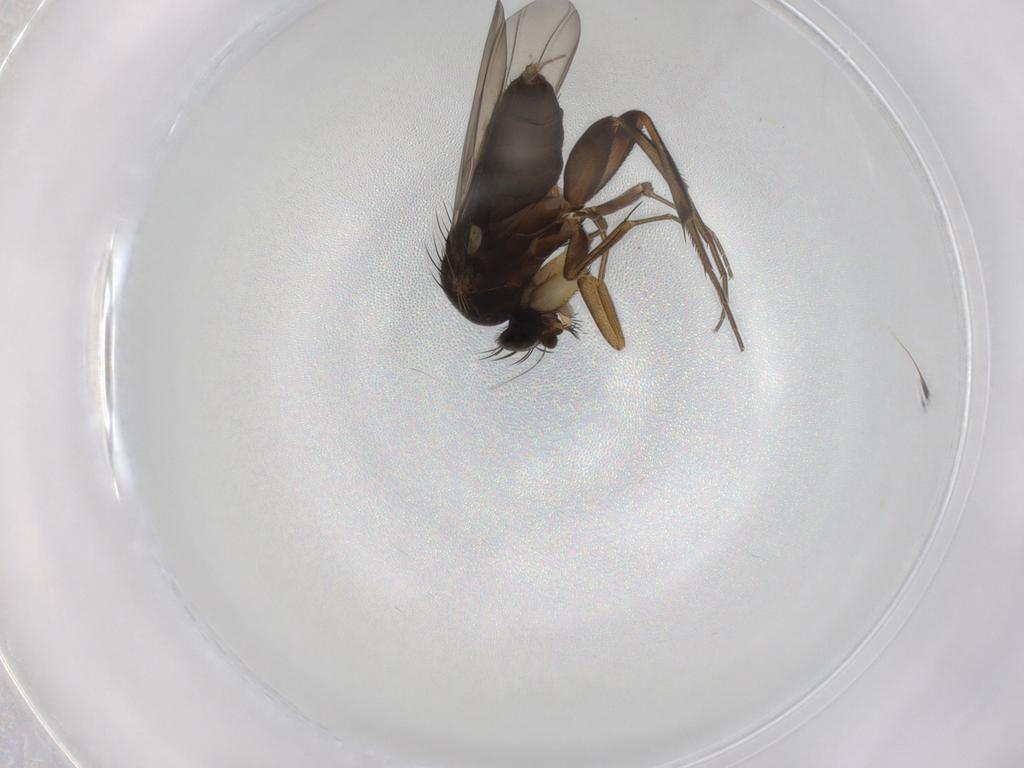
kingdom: Animalia
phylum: Arthropoda
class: Insecta
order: Diptera
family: Phoridae
